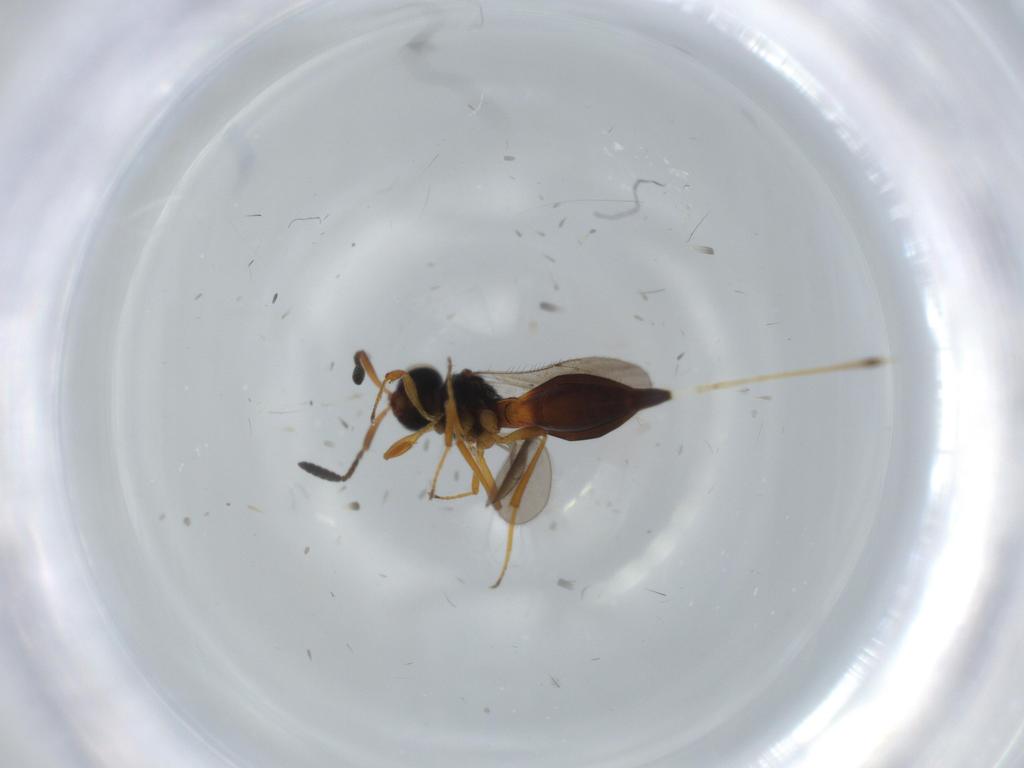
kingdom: Animalia
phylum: Arthropoda
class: Insecta
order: Hymenoptera
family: Scelionidae
